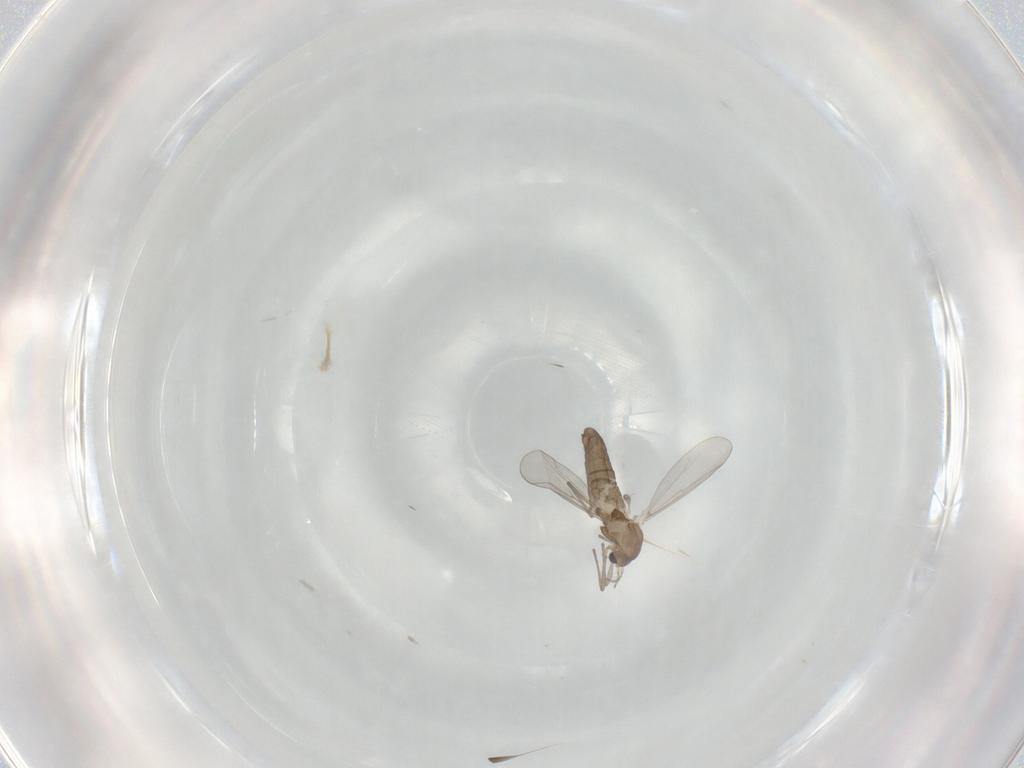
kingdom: Animalia
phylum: Arthropoda
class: Insecta
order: Diptera
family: Chironomidae
